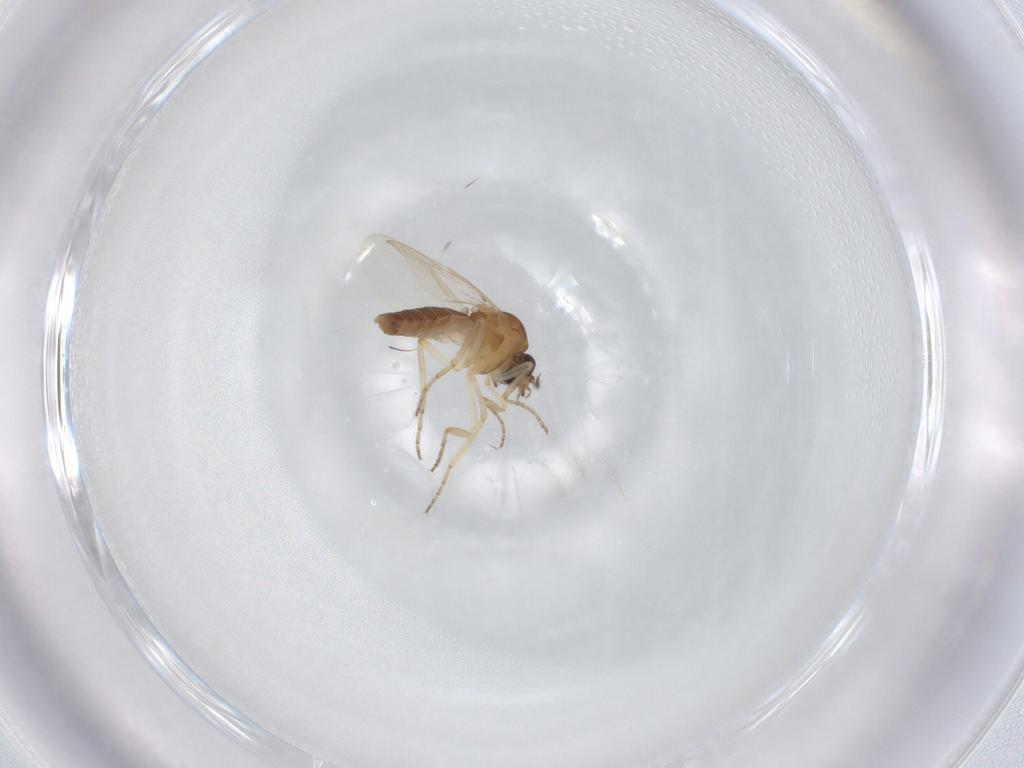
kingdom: Animalia
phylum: Arthropoda
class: Insecta
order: Diptera
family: Ceratopogonidae
